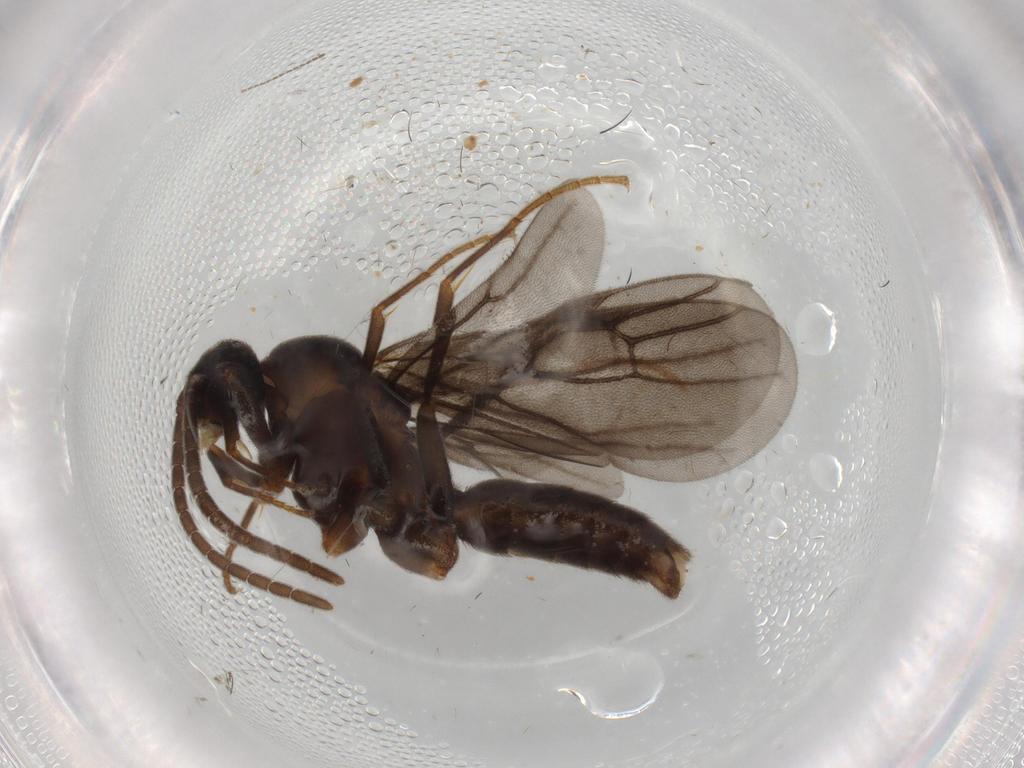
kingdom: Animalia
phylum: Arthropoda
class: Insecta
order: Hymenoptera
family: Formicidae
